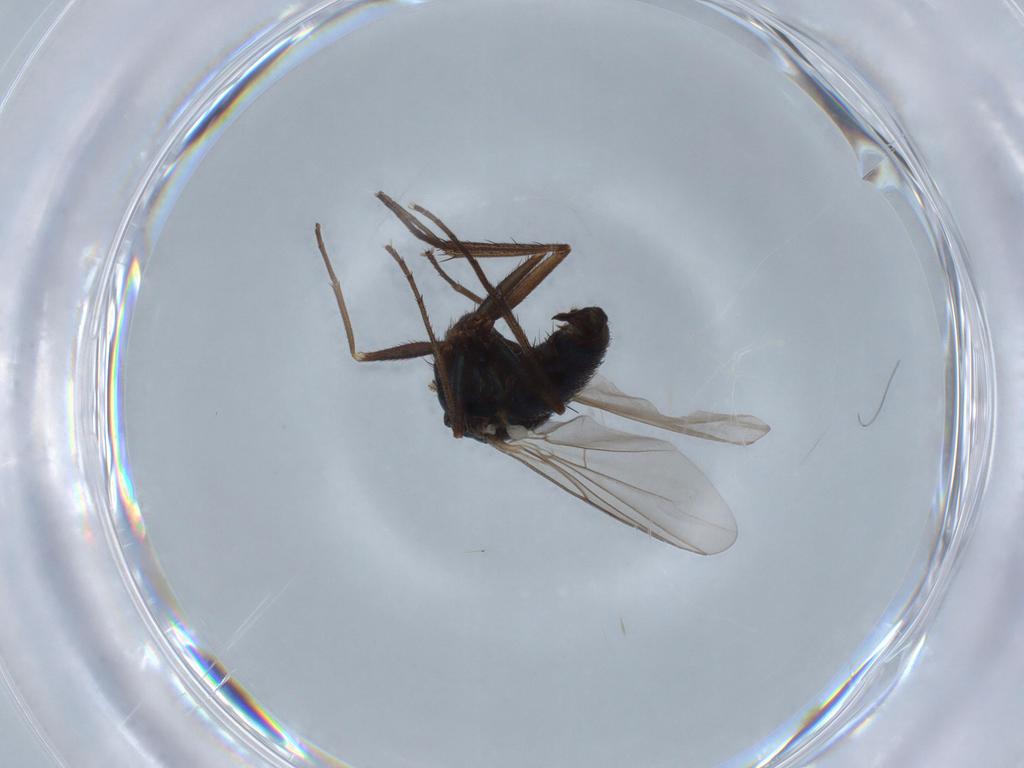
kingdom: Animalia
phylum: Arthropoda
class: Insecta
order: Diptera
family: Dolichopodidae
